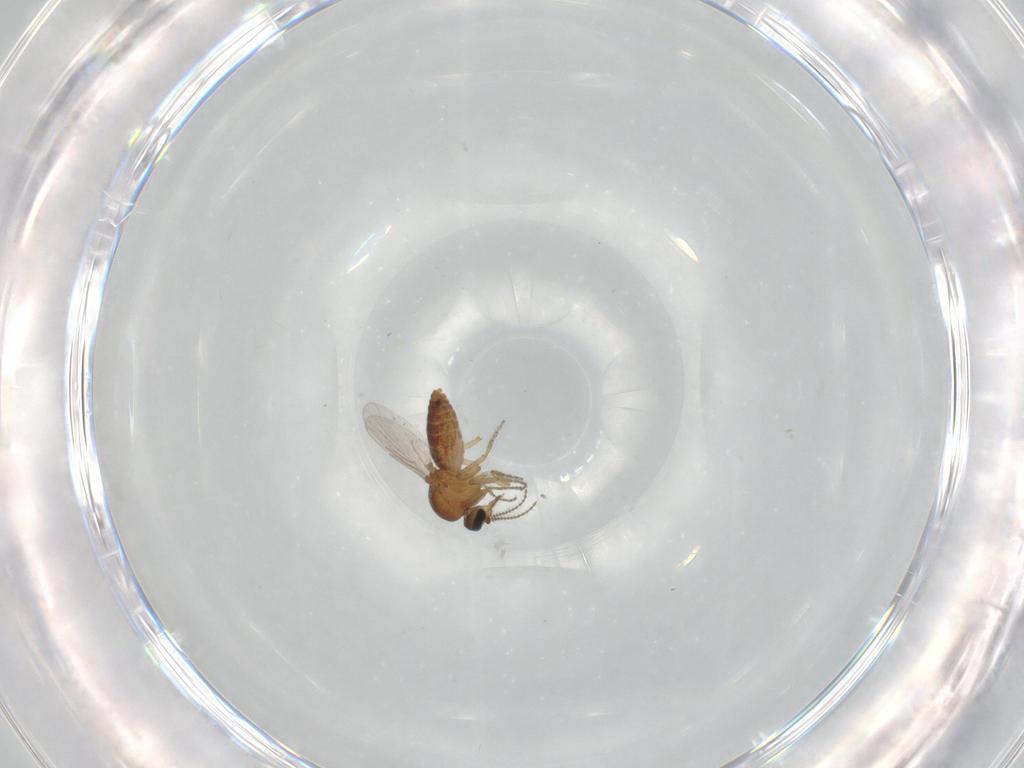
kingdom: Animalia
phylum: Arthropoda
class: Insecta
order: Diptera
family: Ceratopogonidae
